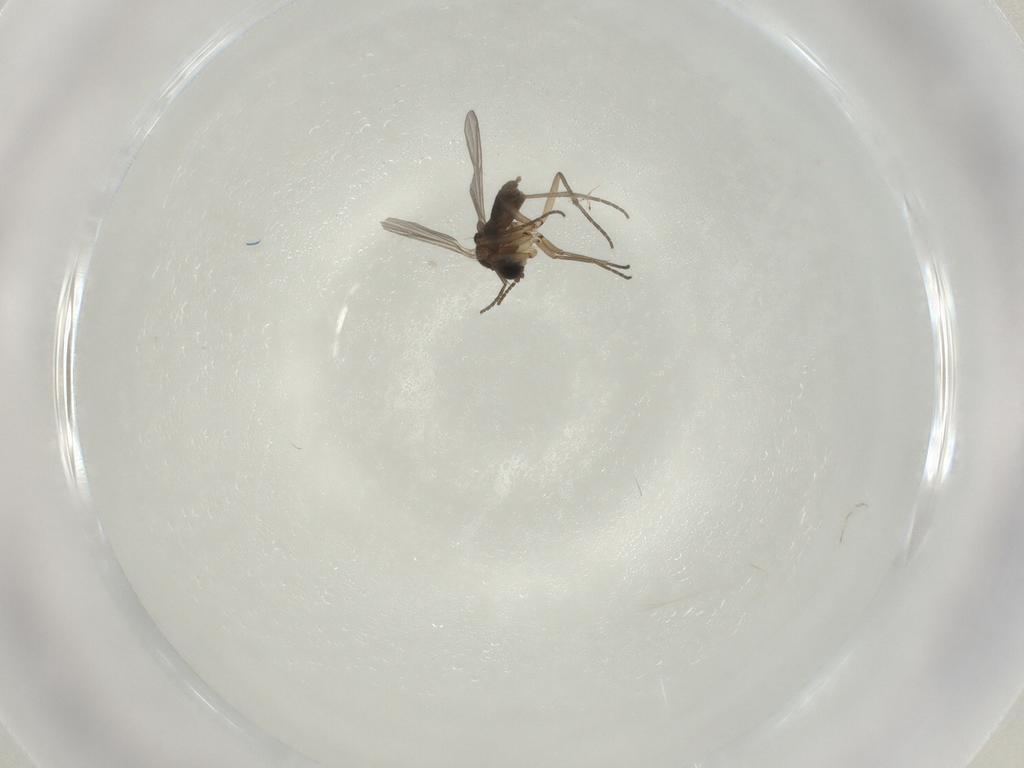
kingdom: Animalia
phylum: Arthropoda
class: Insecta
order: Diptera
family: Sciaridae
